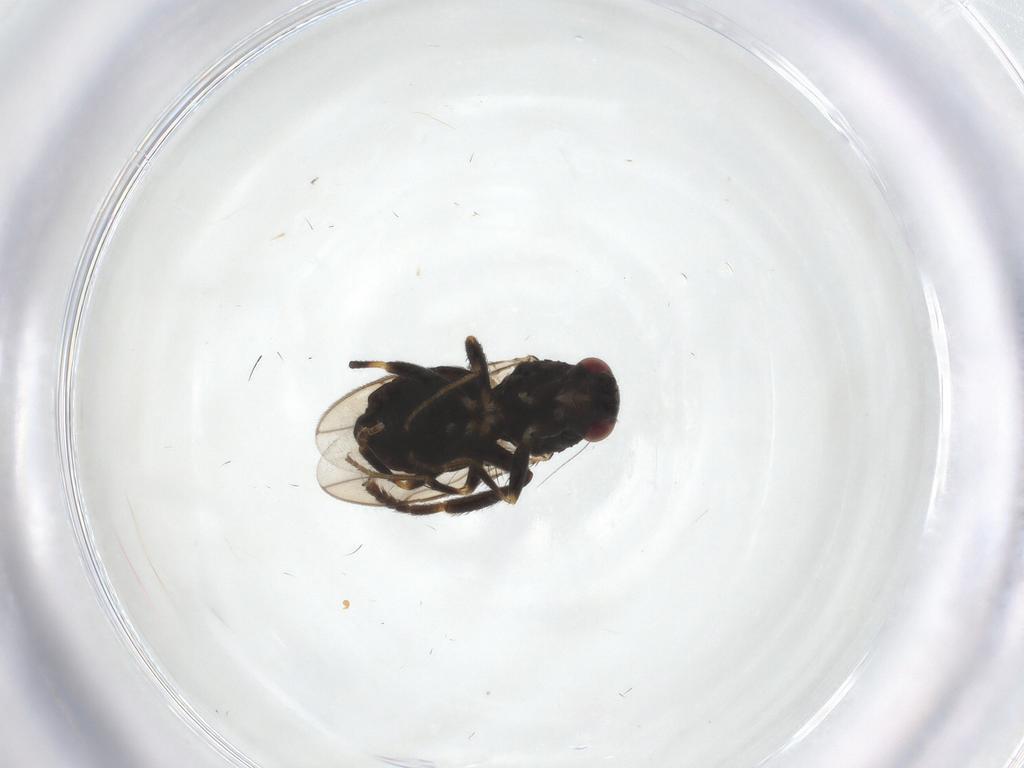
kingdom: Animalia
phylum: Arthropoda
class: Insecta
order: Diptera
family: Sphaeroceridae
